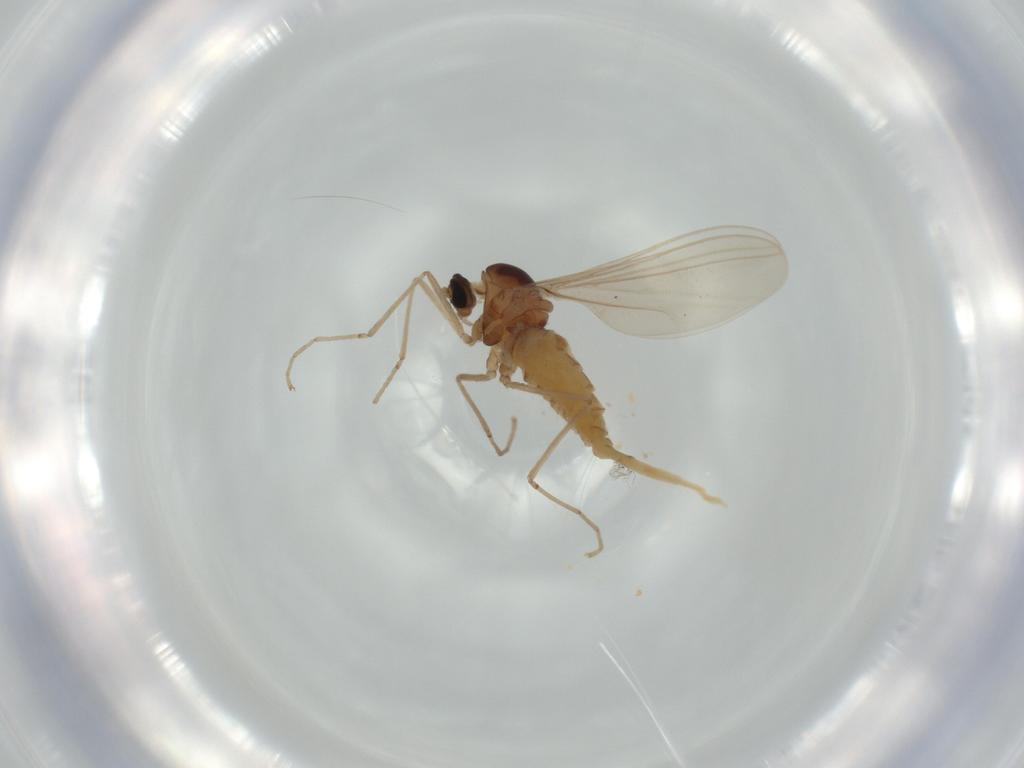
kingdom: Animalia
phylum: Arthropoda
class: Insecta
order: Diptera
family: Cecidomyiidae
